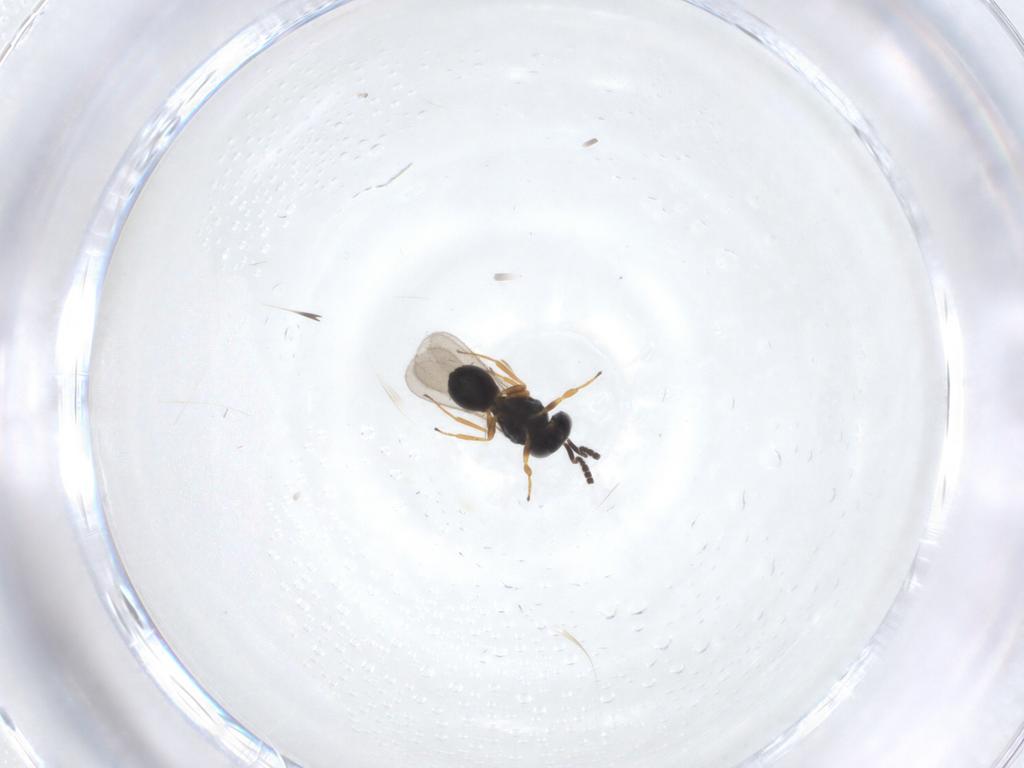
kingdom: Animalia
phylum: Arthropoda
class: Insecta
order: Hymenoptera
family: Scelionidae
